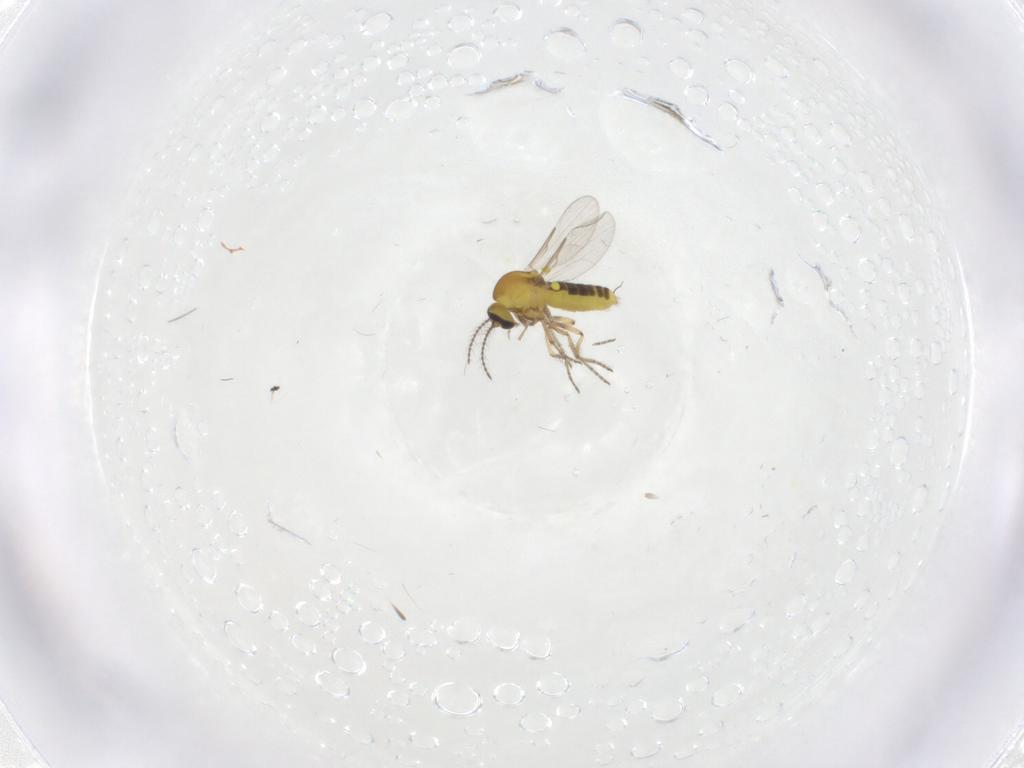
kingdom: Animalia
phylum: Arthropoda
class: Insecta
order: Diptera
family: Ceratopogonidae
